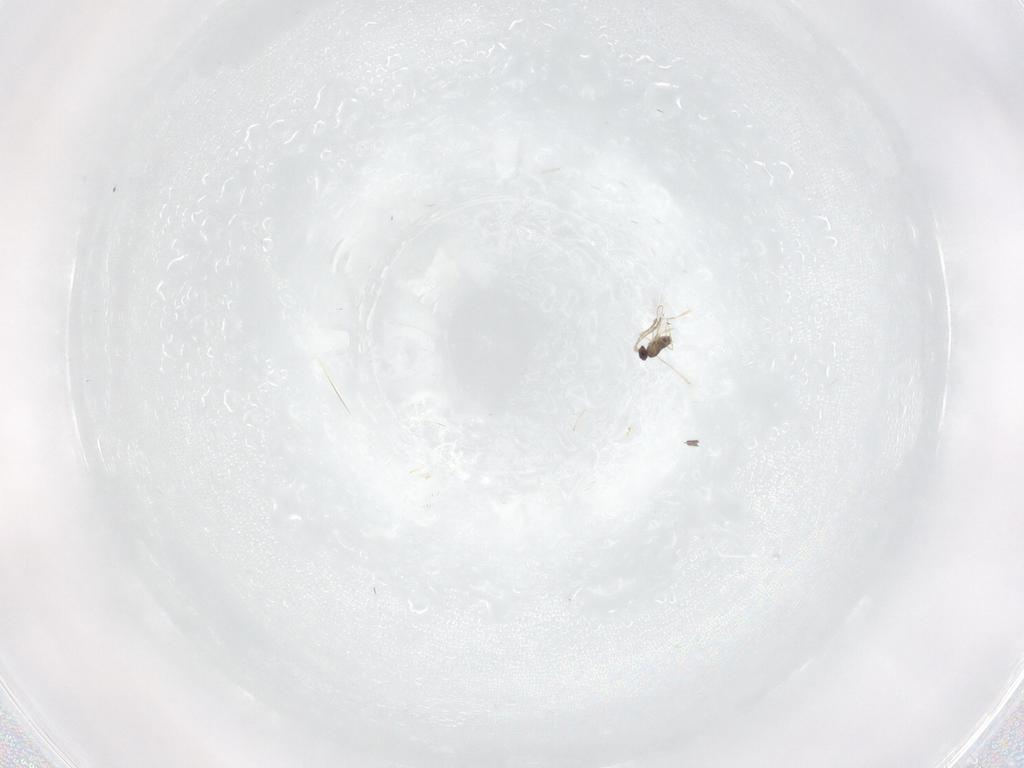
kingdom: Animalia
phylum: Arthropoda
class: Insecta
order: Hymenoptera
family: Mymaridae
